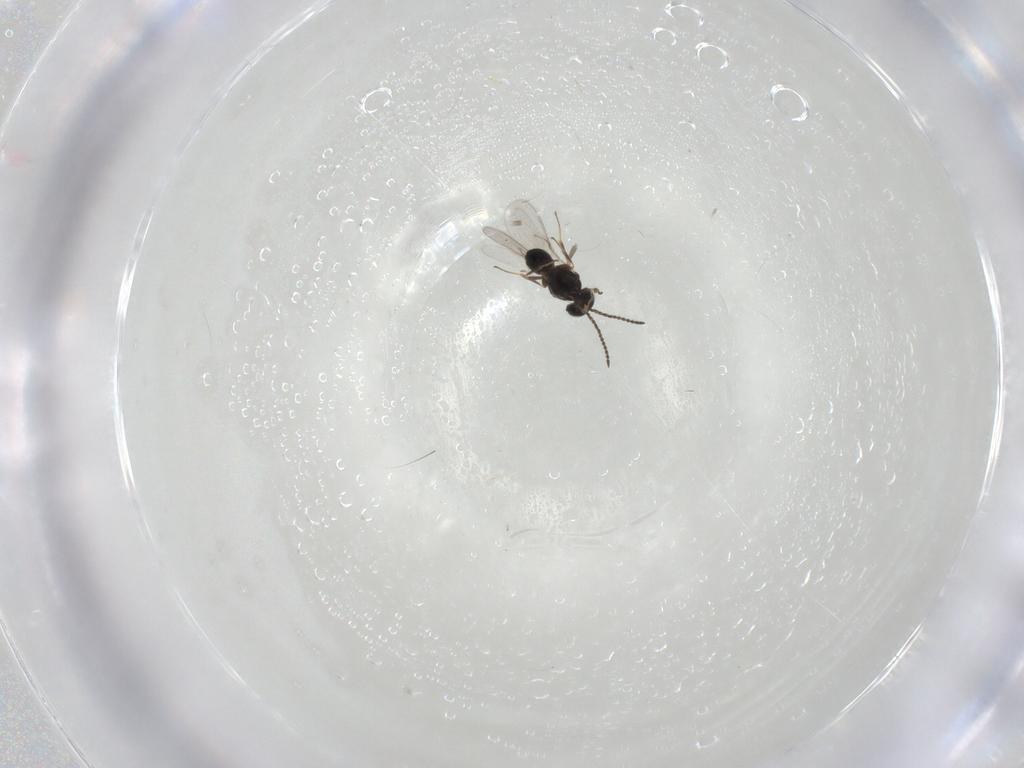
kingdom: Animalia
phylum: Arthropoda
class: Insecta
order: Hymenoptera
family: Scelionidae
